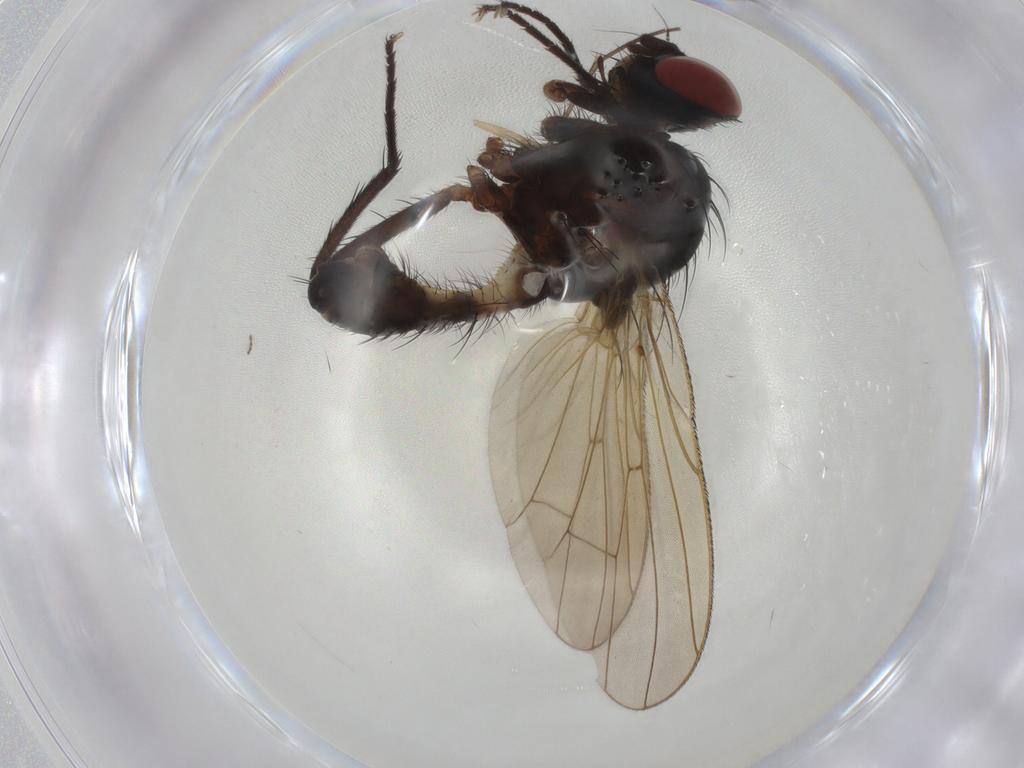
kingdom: Animalia
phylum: Arthropoda
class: Insecta
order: Diptera
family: Anthomyiidae
